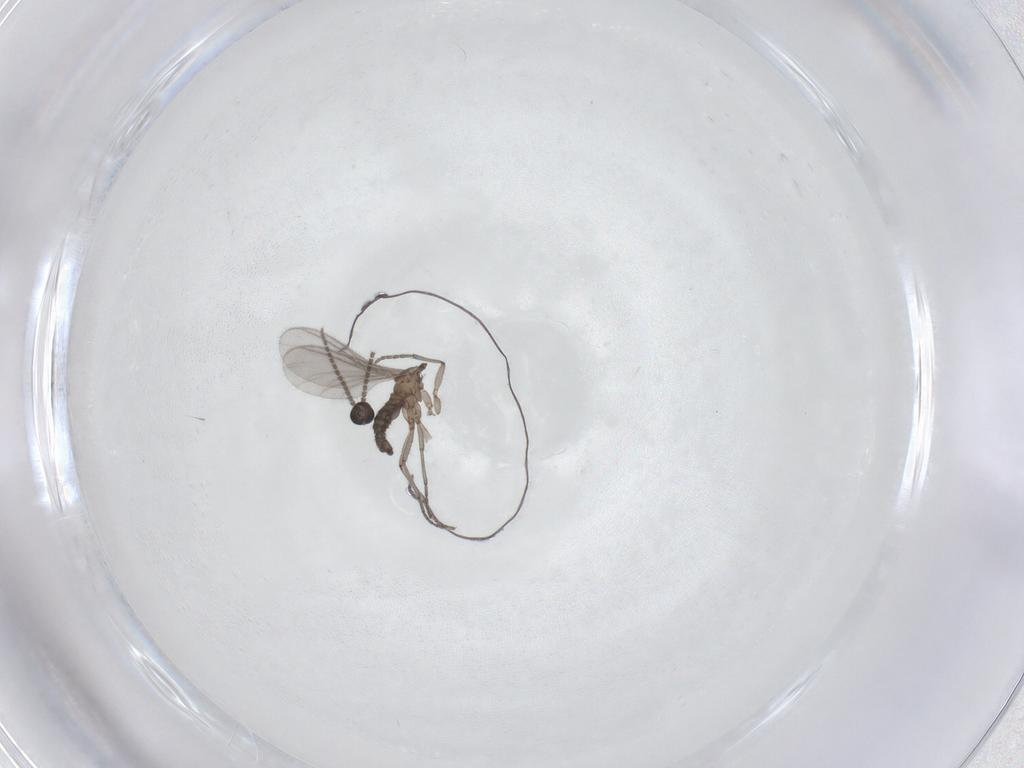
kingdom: Animalia
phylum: Arthropoda
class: Insecta
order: Diptera
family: Sciaridae
